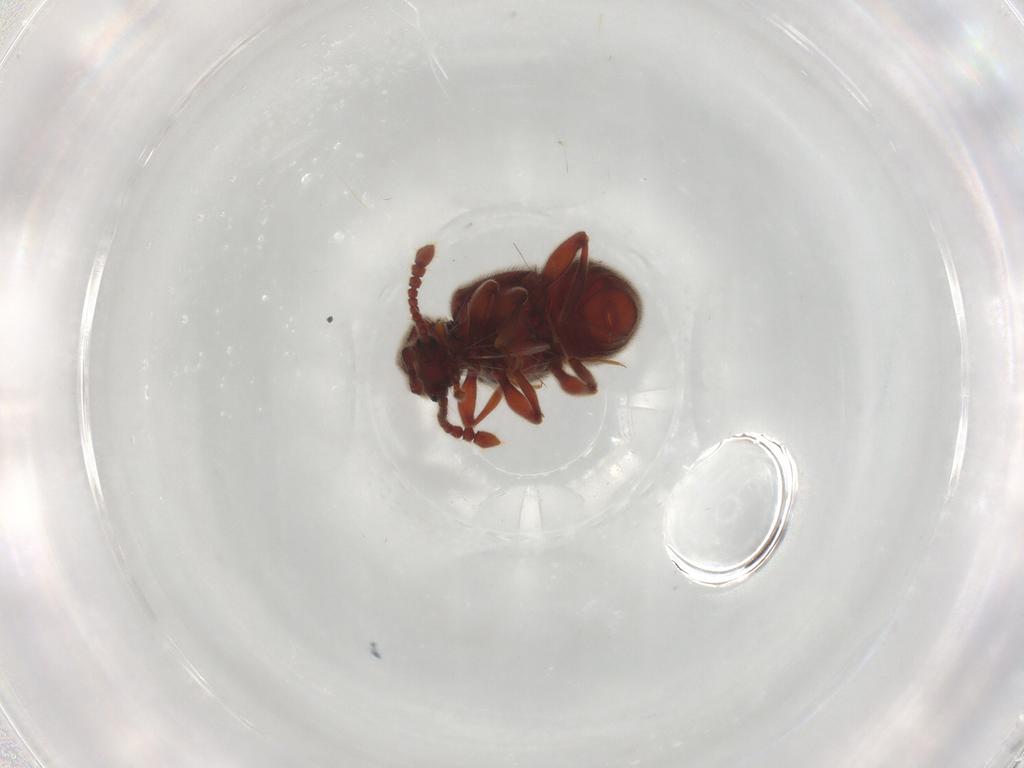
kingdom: Animalia
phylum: Arthropoda
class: Insecta
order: Coleoptera
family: Staphylinidae
